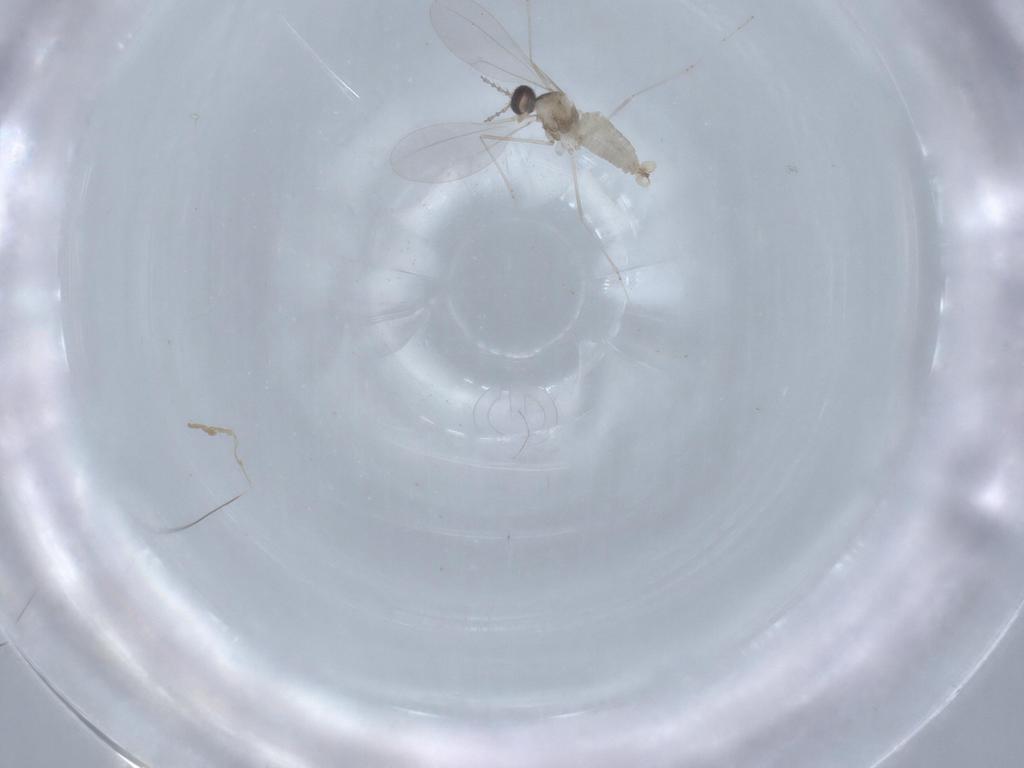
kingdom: Animalia
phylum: Arthropoda
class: Insecta
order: Diptera
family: Cecidomyiidae
